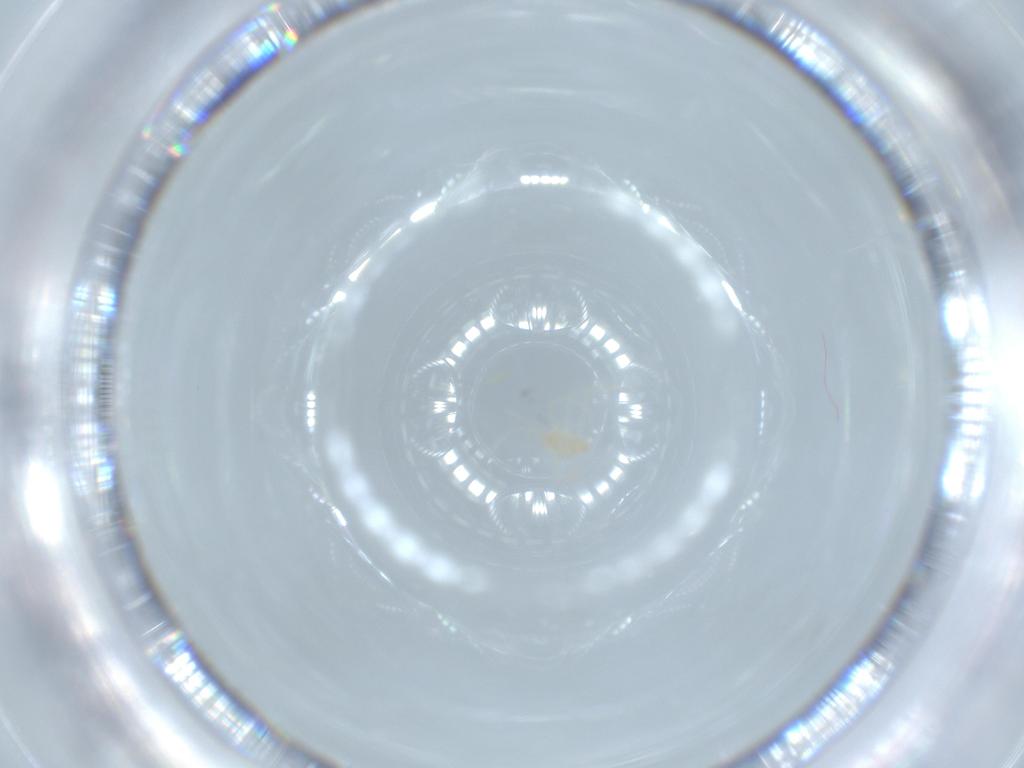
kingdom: Animalia
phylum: Arthropoda
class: Arachnida
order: Trombidiformes
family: Erythraeidae
